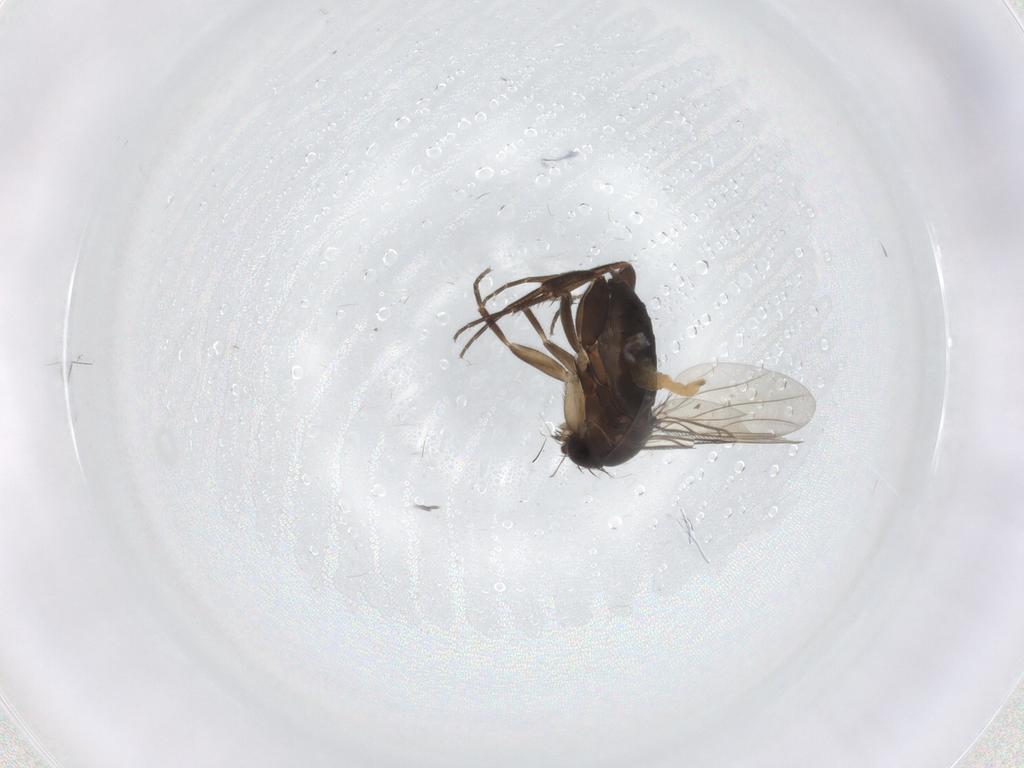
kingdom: Animalia
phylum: Arthropoda
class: Insecta
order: Diptera
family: Phoridae
